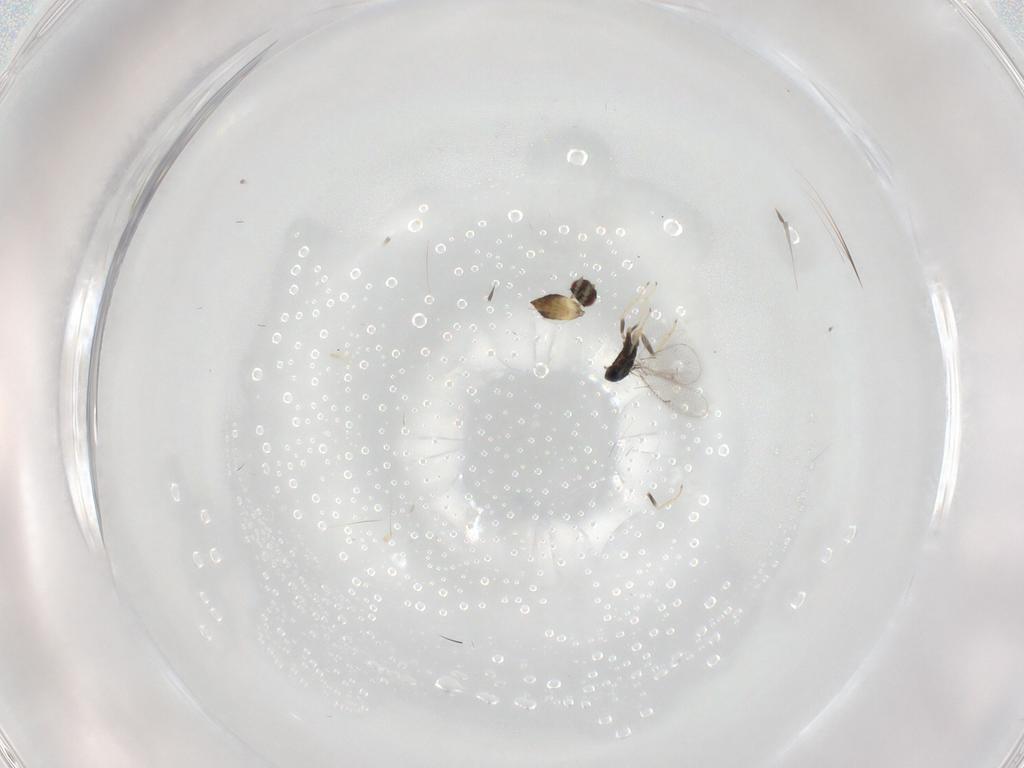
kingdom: Animalia
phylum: Arthropoda
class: Insecta
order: Hymenoptera
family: Eulophidae
